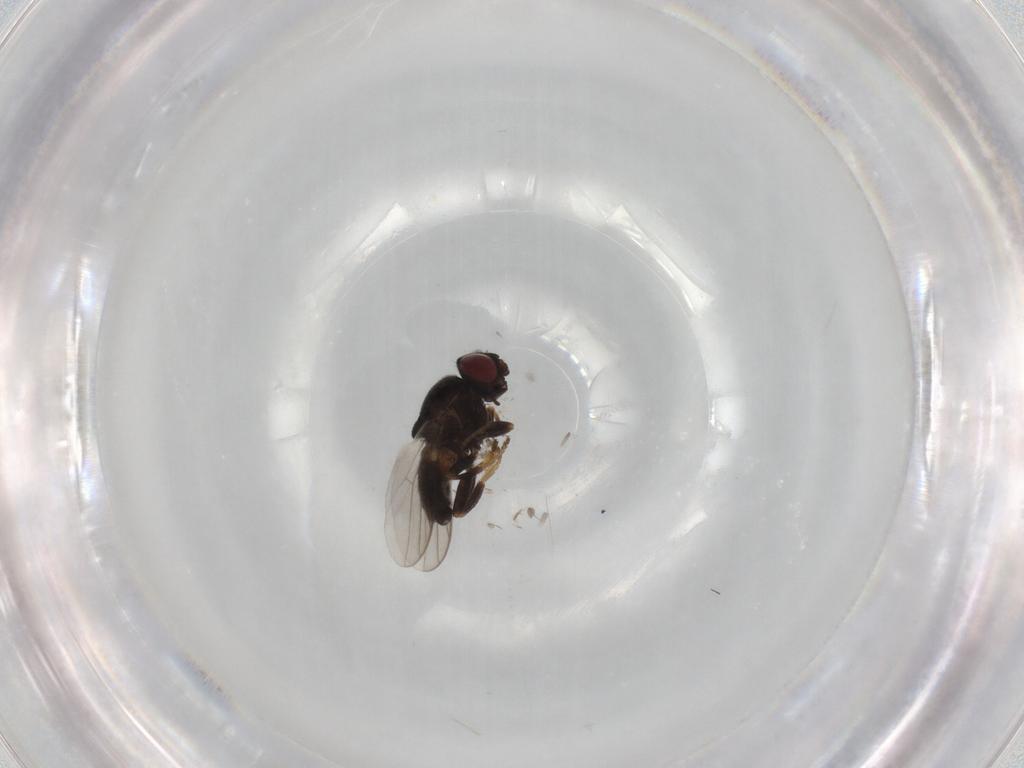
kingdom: Animalia
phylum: Arthropoda
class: Insecta
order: Diptera
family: Chloropidae
